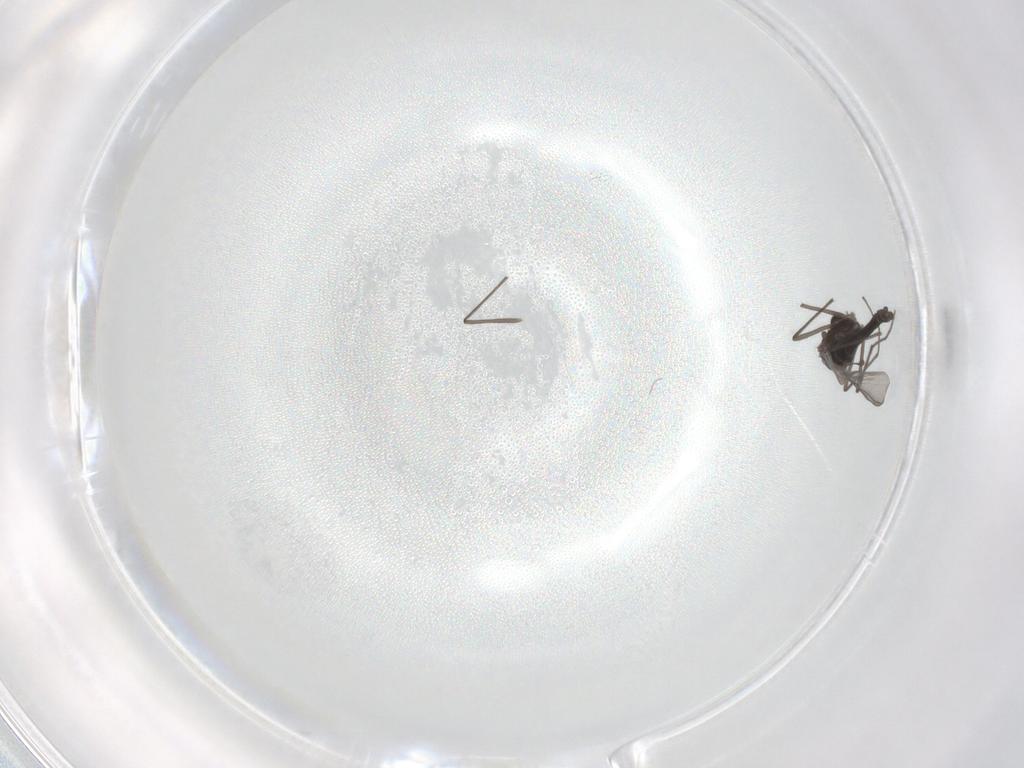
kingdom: Animalia
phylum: Arthropoda
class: Insecta
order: Diptera
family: Chironomidae
